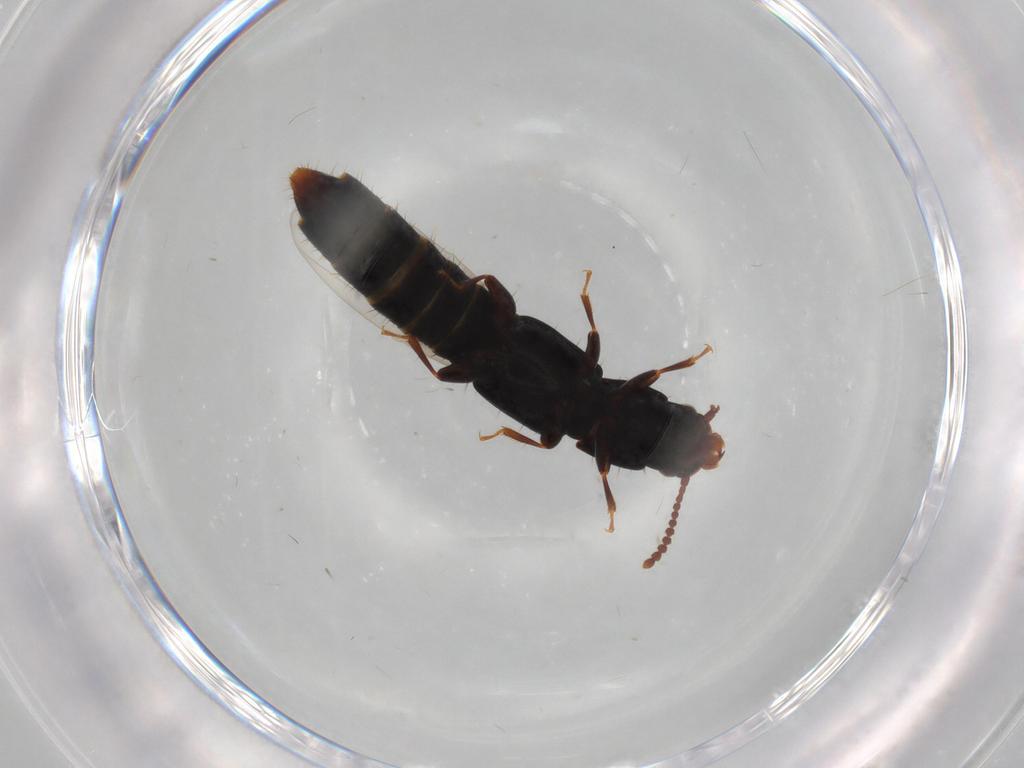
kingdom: Animalia
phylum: Arthropoda
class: Insecta
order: Coleoptera
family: Staphylinidae
